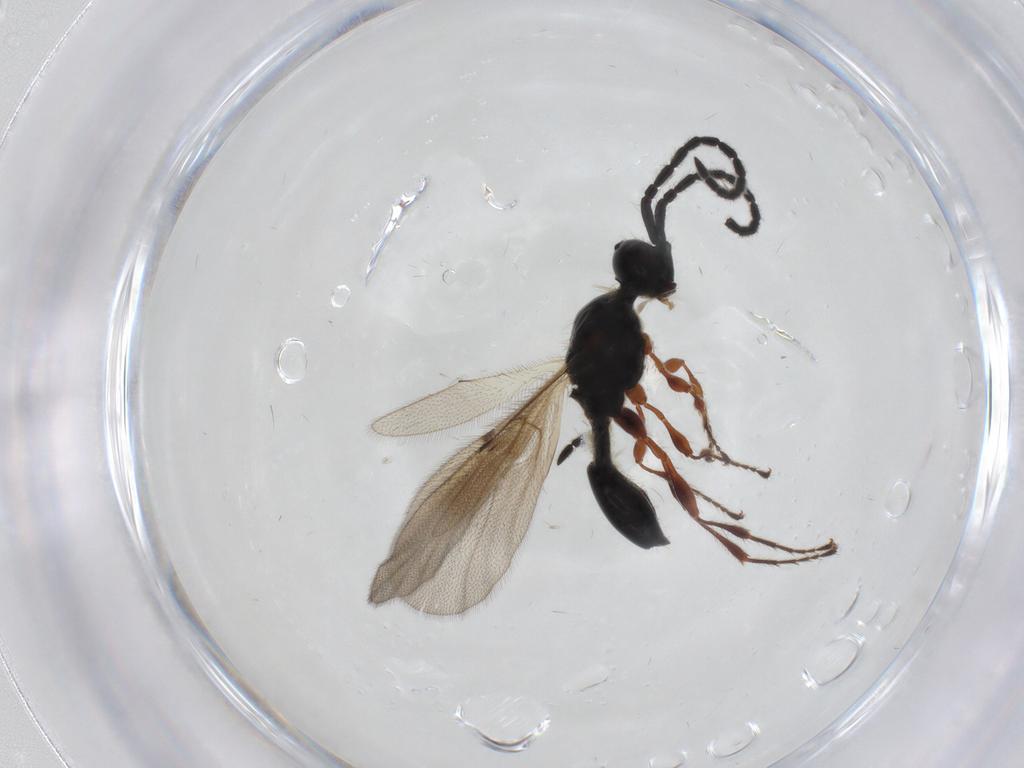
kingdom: Animalia
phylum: Arthropoda
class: Insecta
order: Hymenoptera
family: Diapriidae
